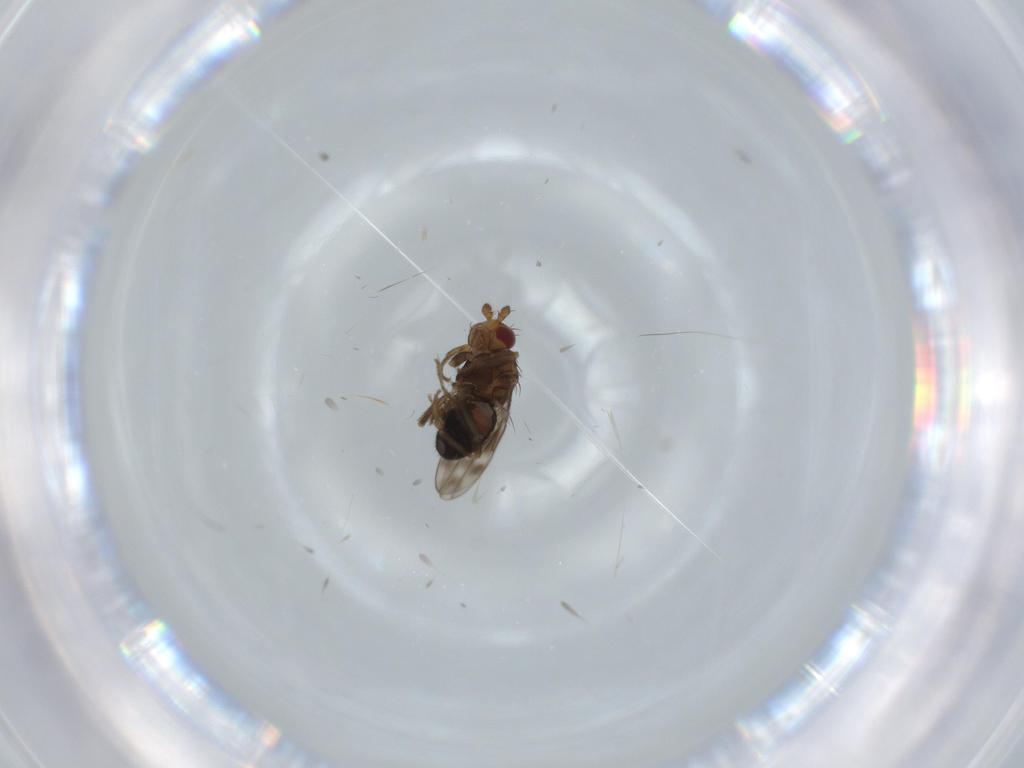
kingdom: Animalia
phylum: Arthropoda
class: Insecta
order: Diptera
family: Sphaeroceridae
